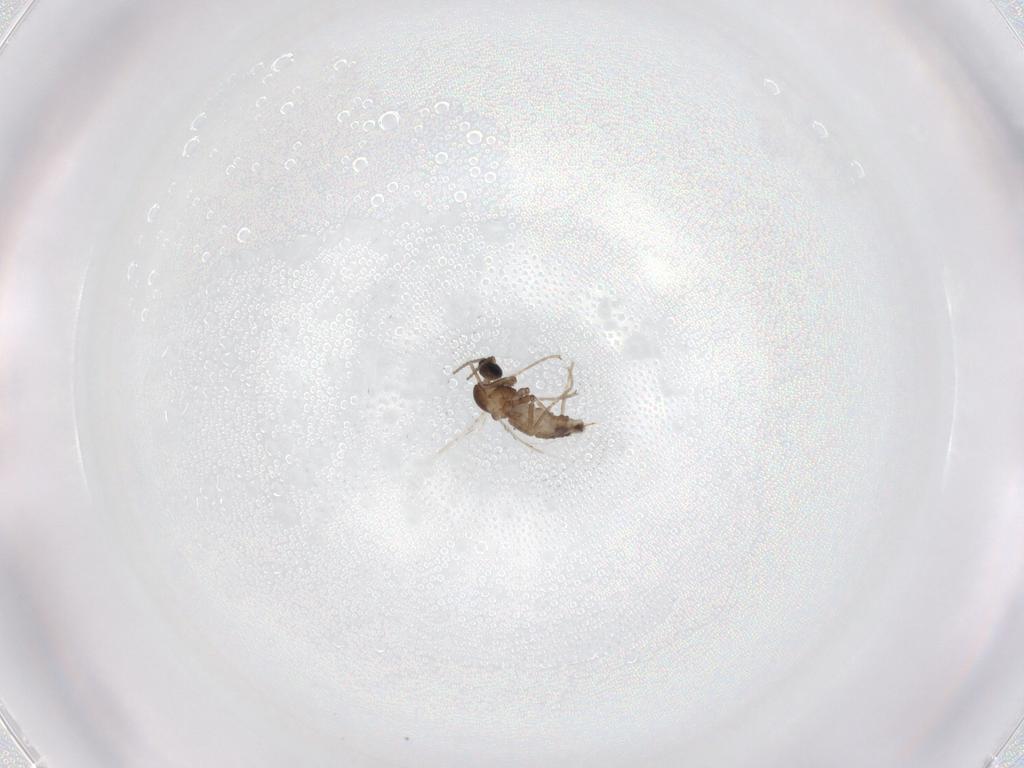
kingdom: Animalia
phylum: Arthropoda
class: Insecta
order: Diptera
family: Cecidomyiidae
